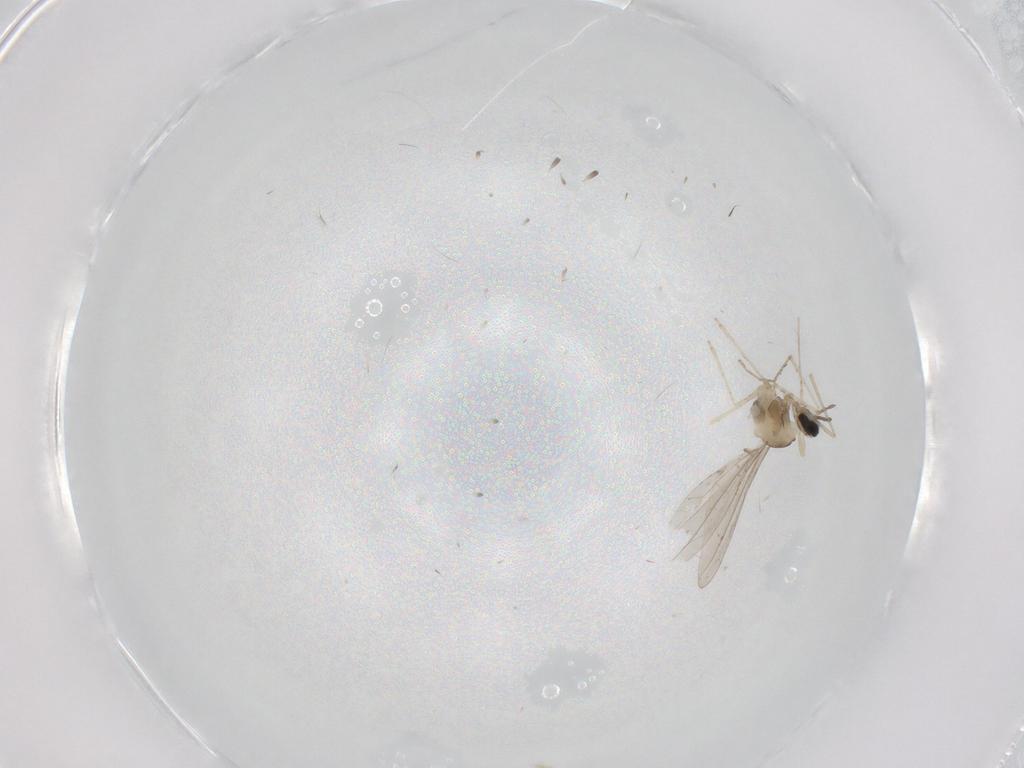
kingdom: Animalia
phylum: Arthropoda
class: Insecta
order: Diptera
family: Cecidomyiidae
